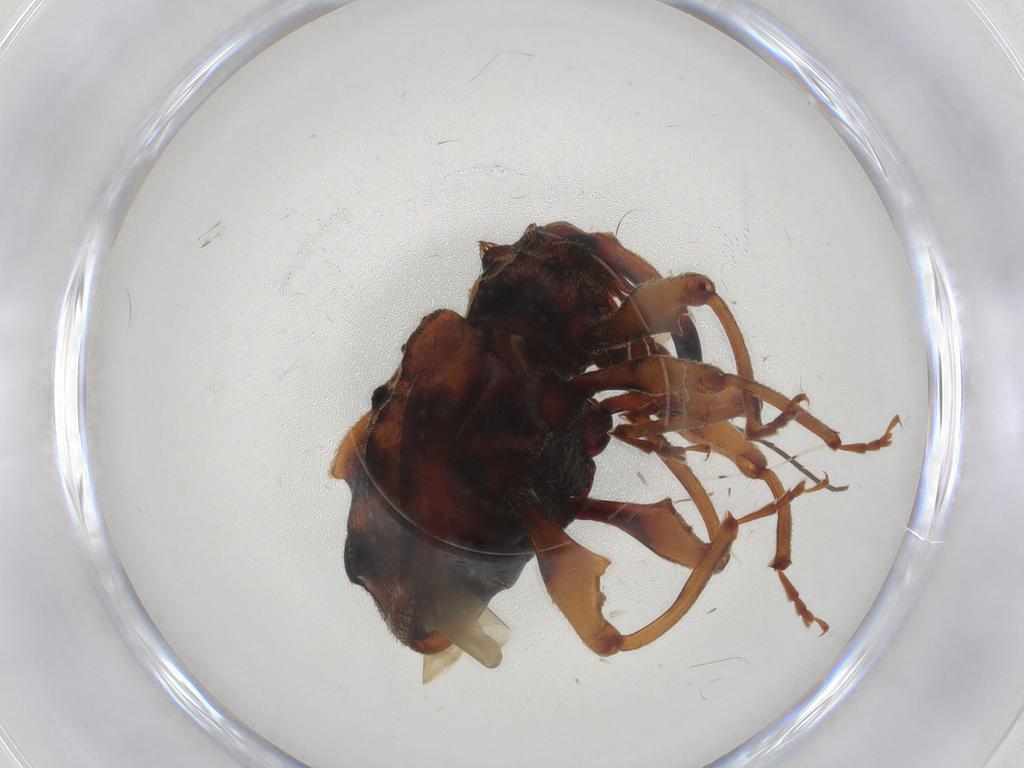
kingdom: Animalia
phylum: Arthropoda
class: Insecta
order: Coleoptera
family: Curculionidae
